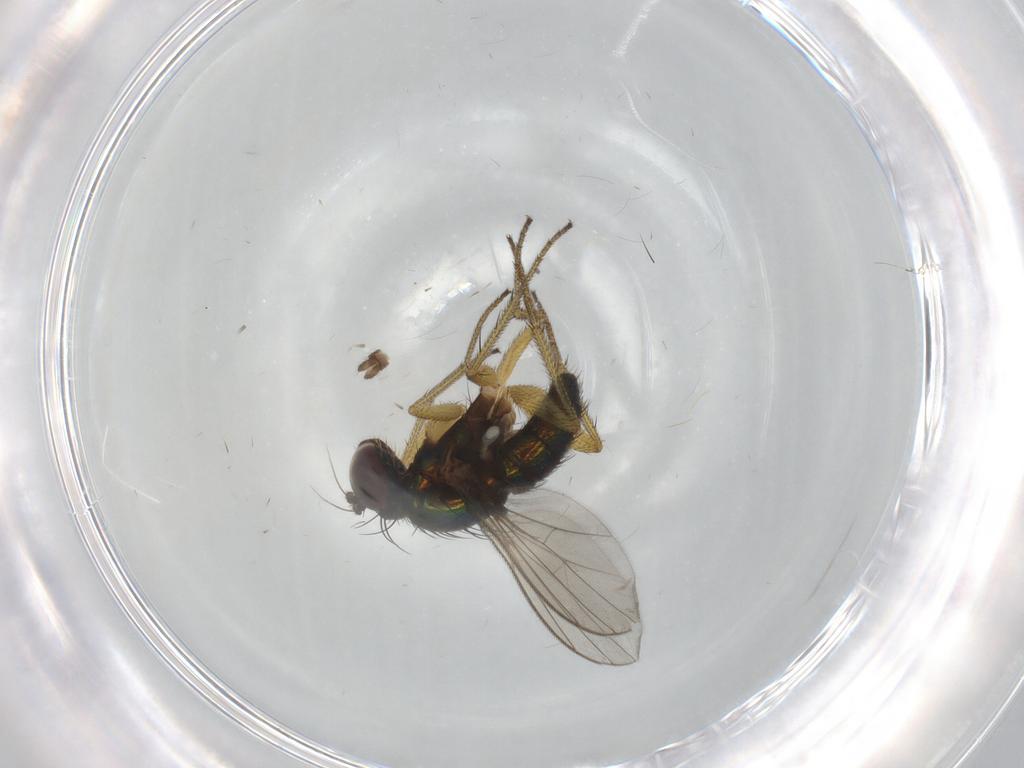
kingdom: Animalia
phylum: Arthropoda
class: Insecta
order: Diptera
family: Dolichopodidae
